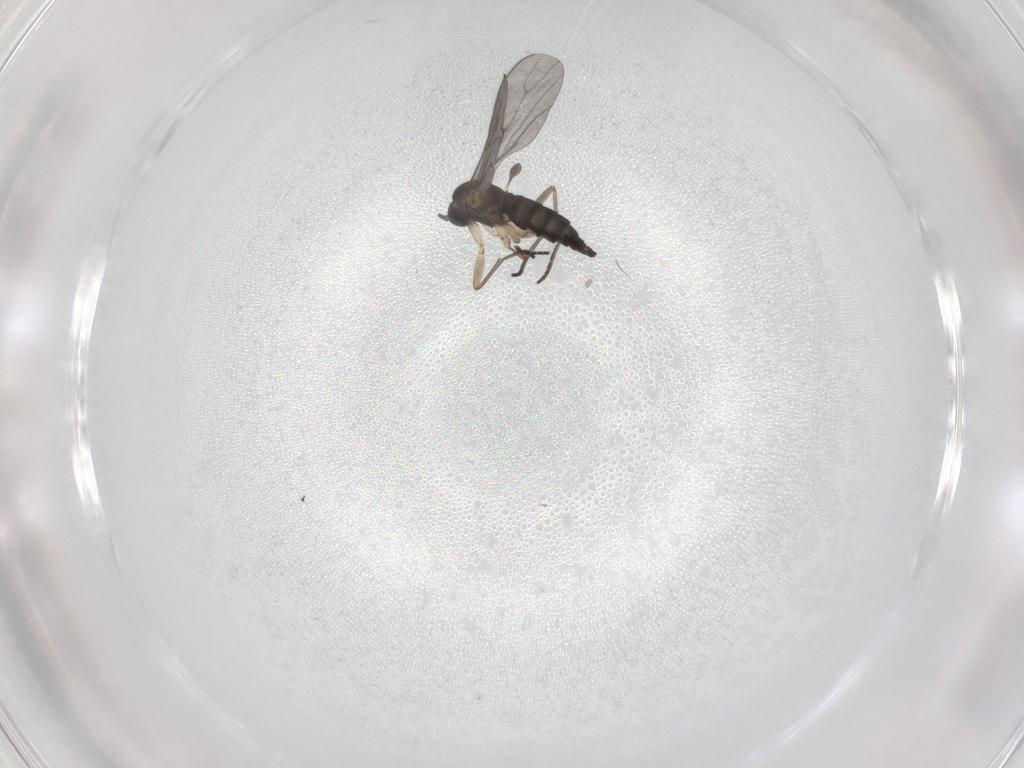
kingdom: Animalia
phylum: Arthropoda
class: Insecta
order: Diptera
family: Sciaridae
